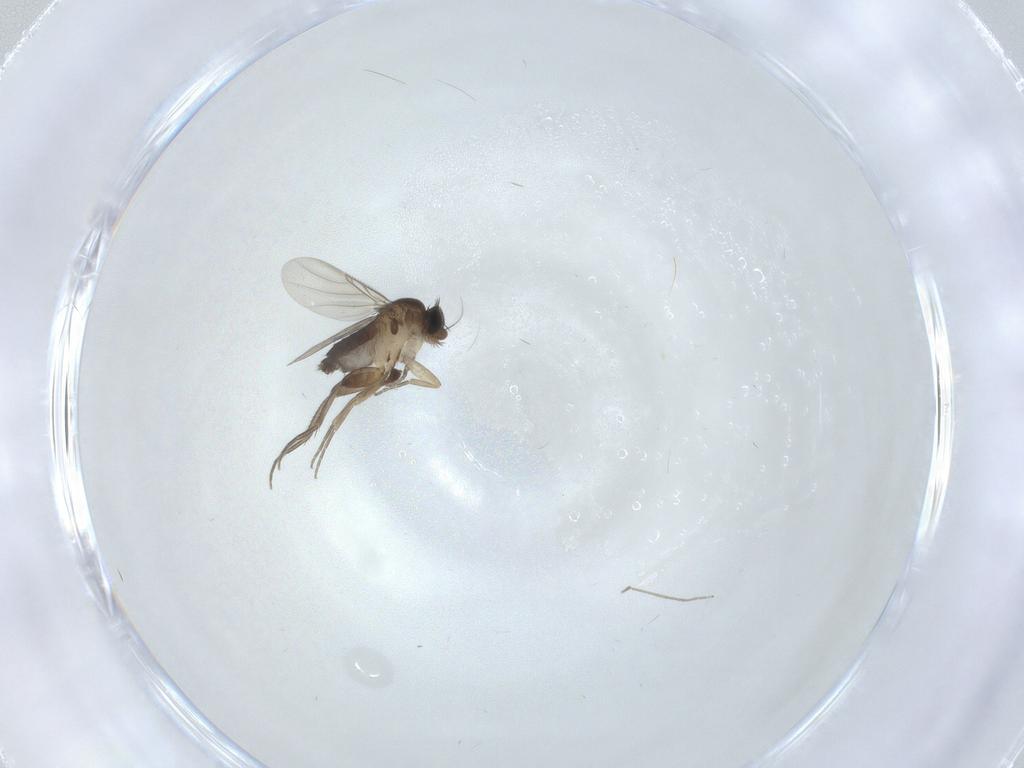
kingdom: Animalia
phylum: Arthropoda
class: Insecta
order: Diptera
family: Phoridae
